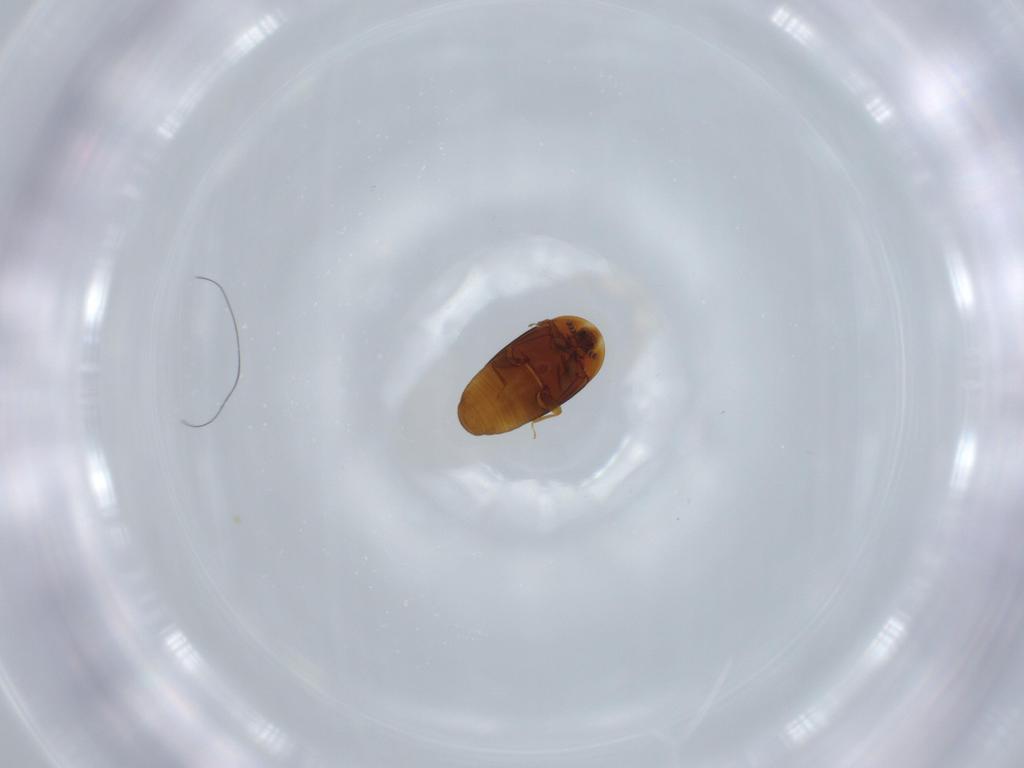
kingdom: Animalia
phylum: Arthropoda
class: Insecta
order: Coleoptera
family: Corylophidae
